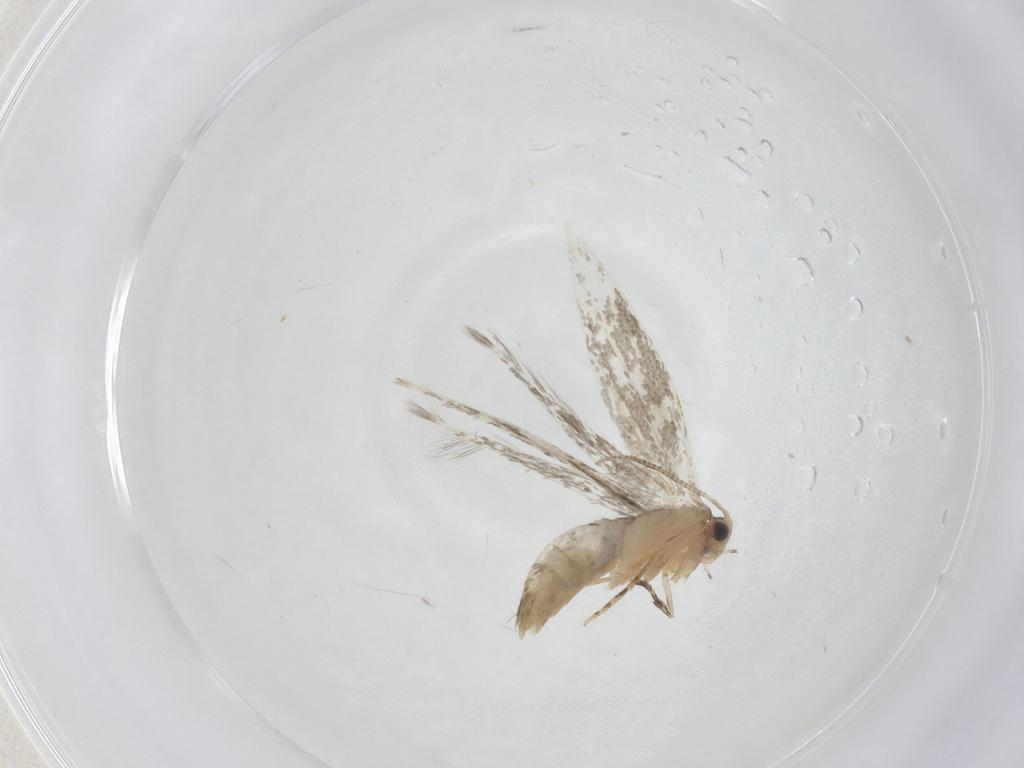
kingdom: Animalia
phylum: Arthropoda
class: Insecta
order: Lepidoptera
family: Tineidae
